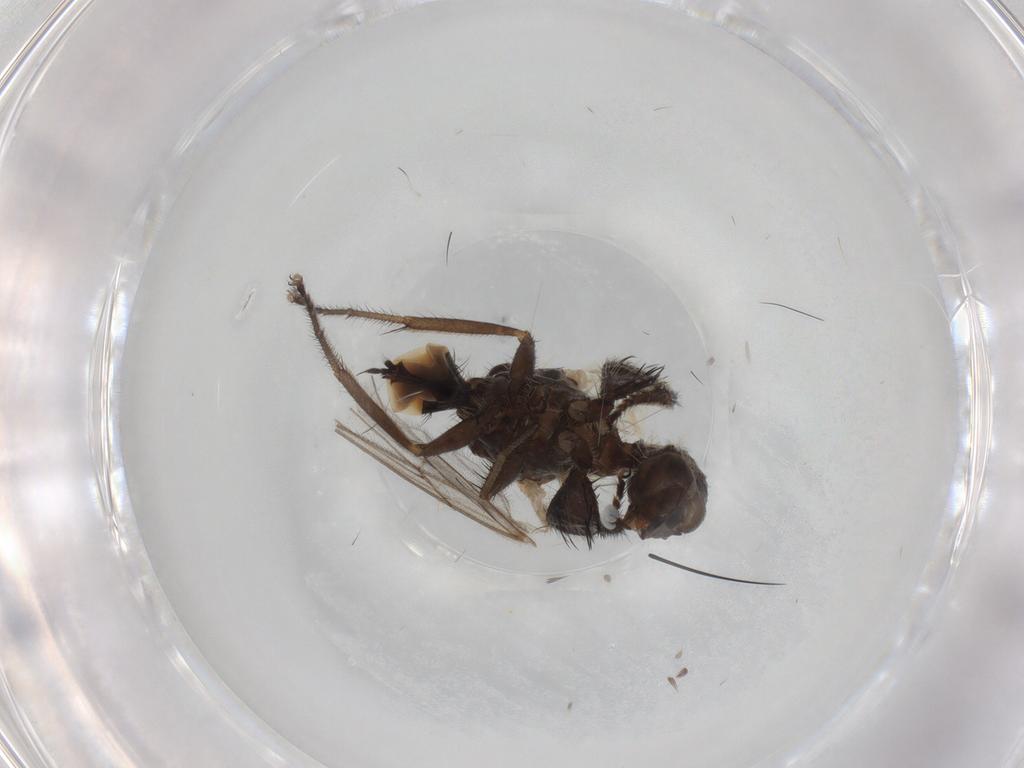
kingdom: Animalia
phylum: Arthropoda
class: Insecta
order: Diptera
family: Hybotidae
